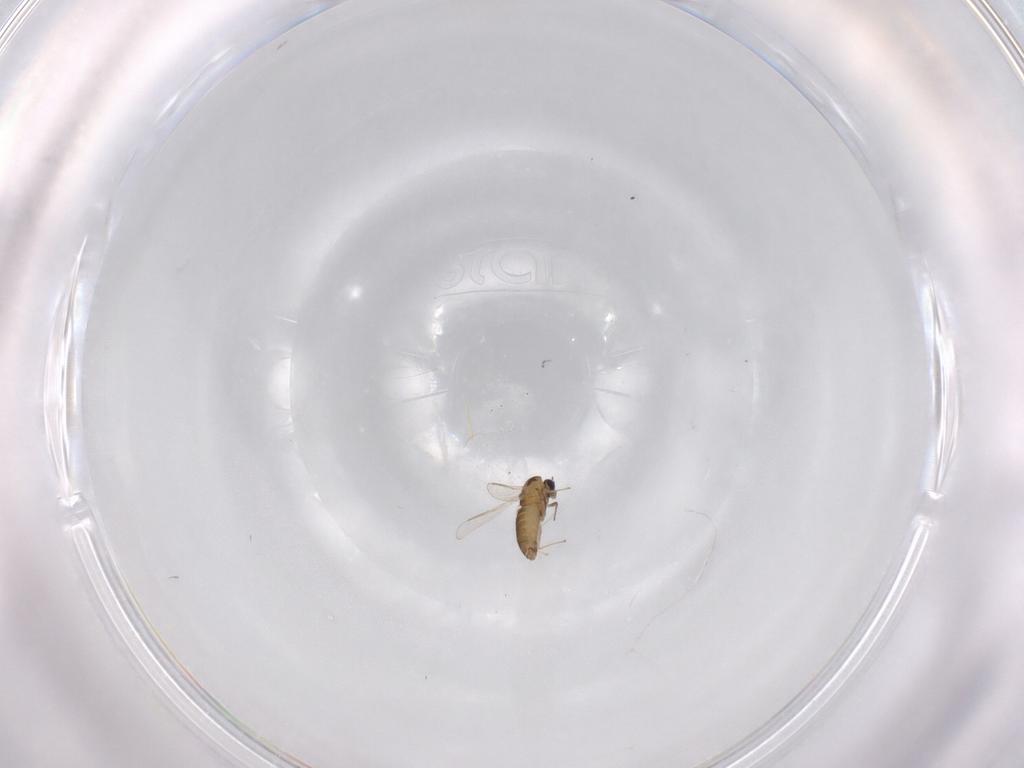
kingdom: Animalia
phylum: Arthropoda
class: Insecta
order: Diptera
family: Chironomidae
